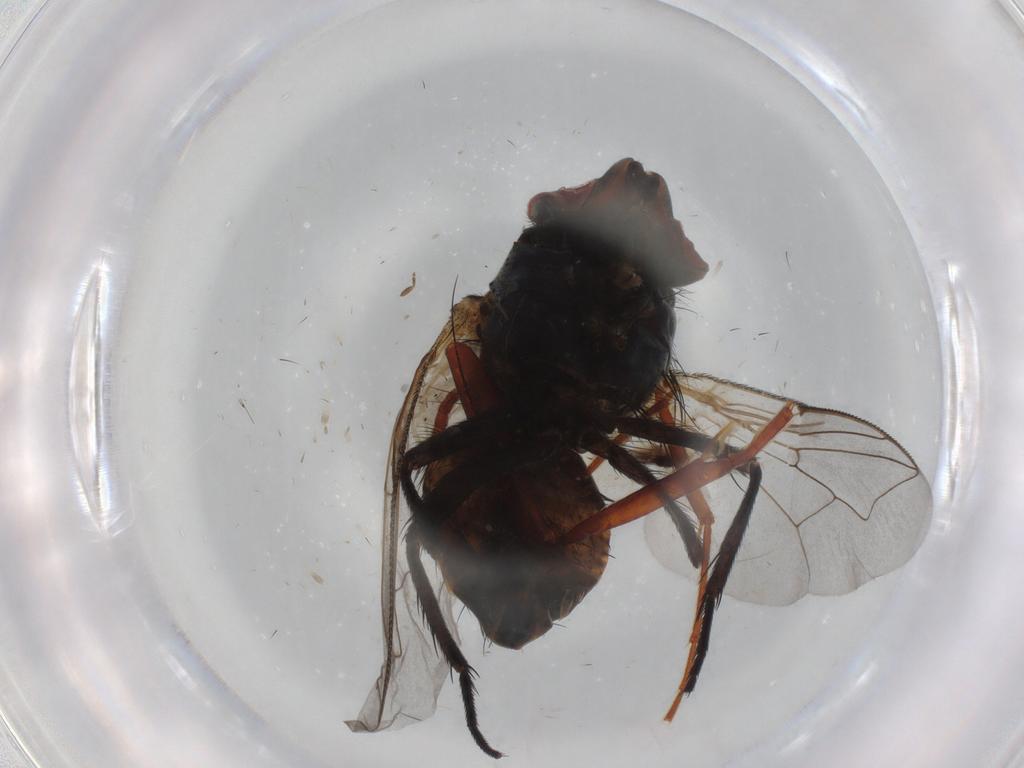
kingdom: Animalia
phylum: Arthropoda
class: Insecta
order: Diptera
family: Sarcophagidae
